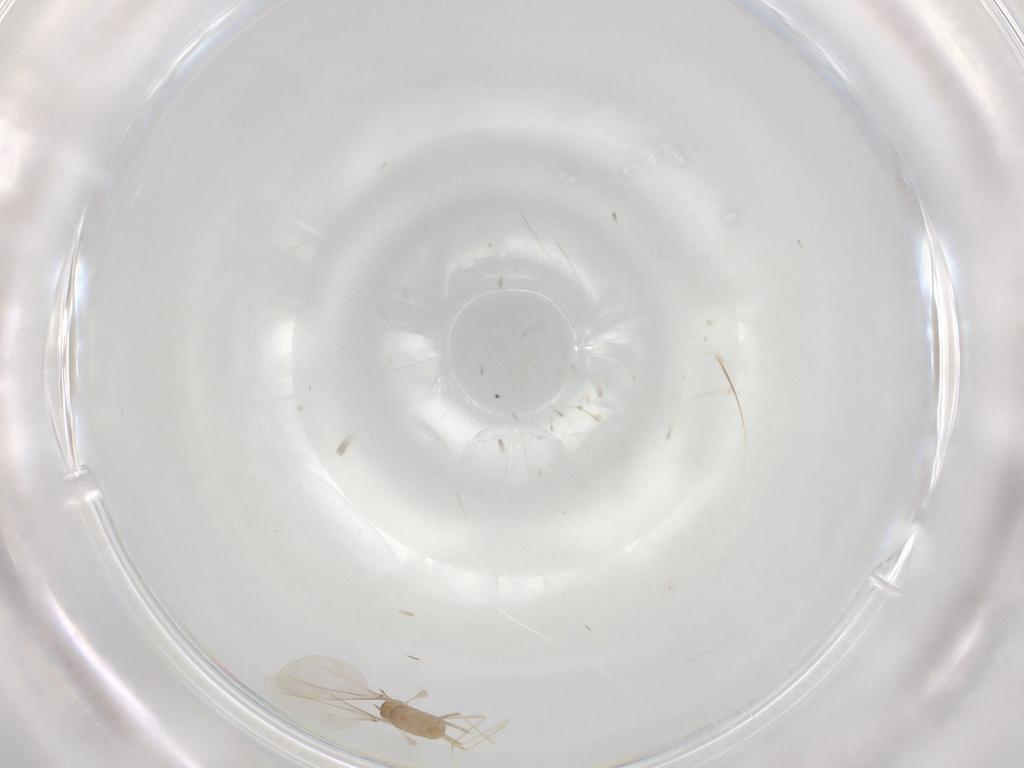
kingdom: Animalia
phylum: Arthropoda
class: Insecta
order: Diptera
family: Cecidomyiidae
